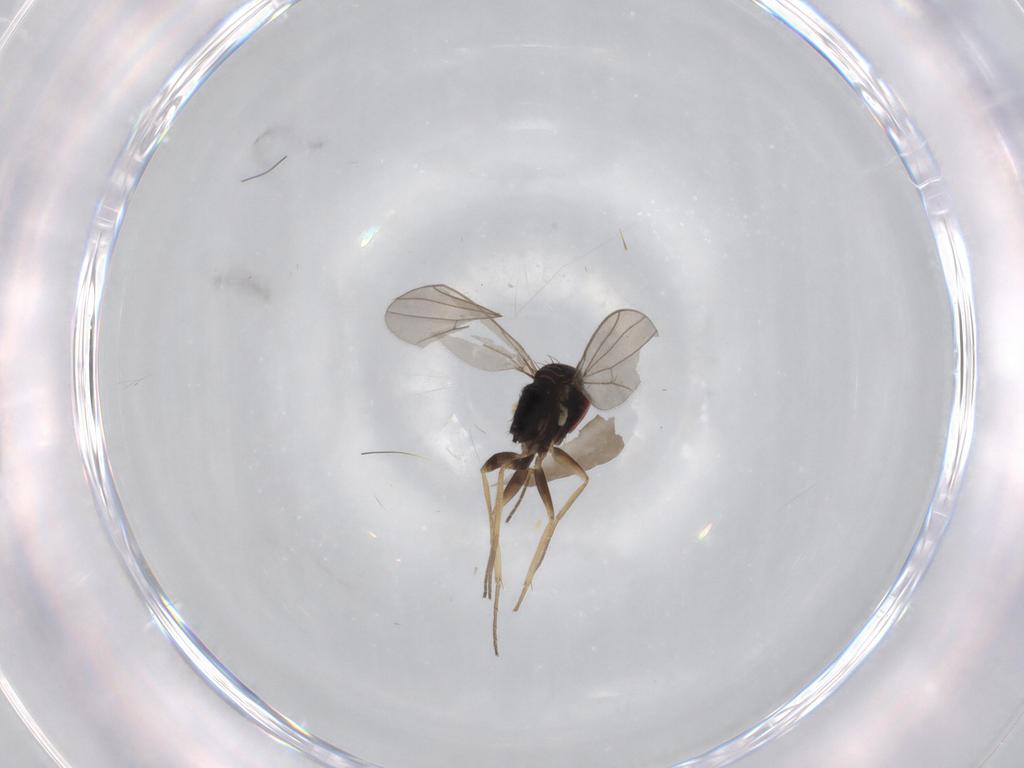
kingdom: Animalia
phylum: Arthropoda
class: Insecta
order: Diptera
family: Dolichopodidae
